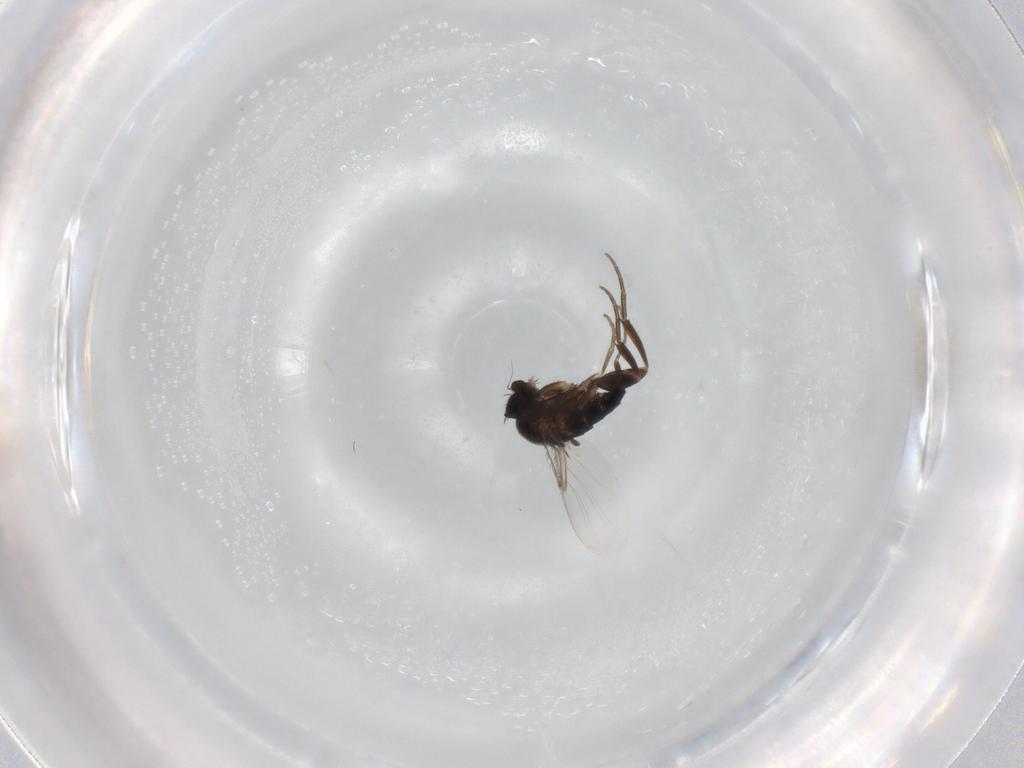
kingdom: Animalia
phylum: Arthropoda
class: Insecta
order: Diptera
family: Phoridae
